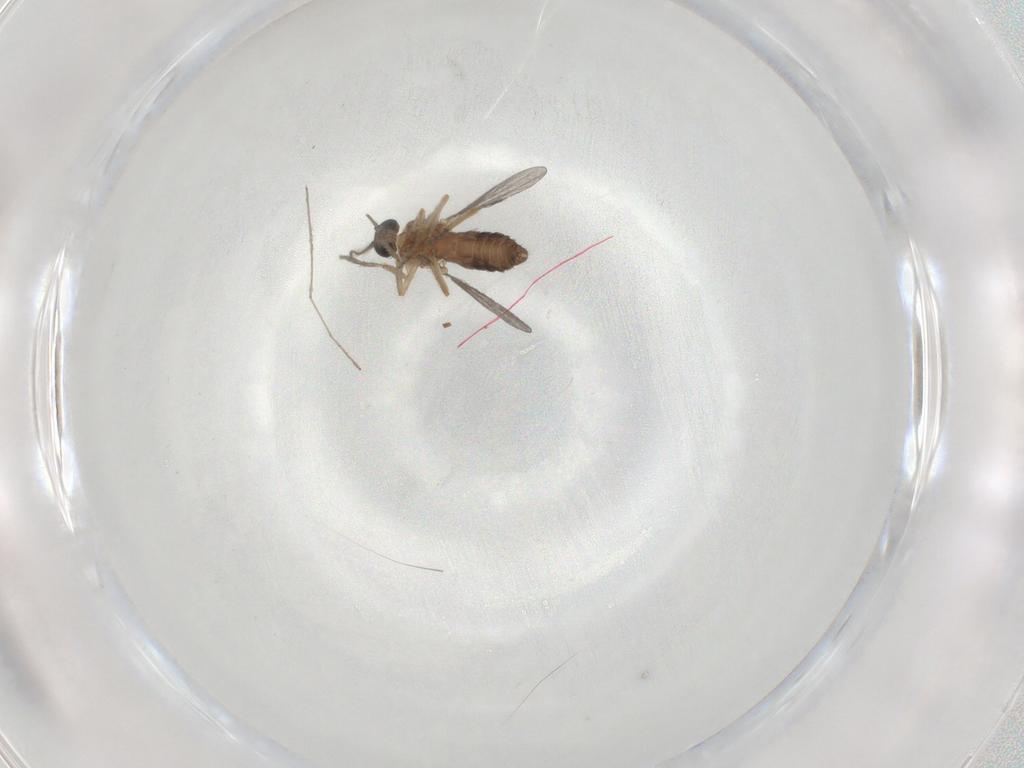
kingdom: Animalia
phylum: Arthropoda
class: Insecta
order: Diptera
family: Ceratopogonidae
